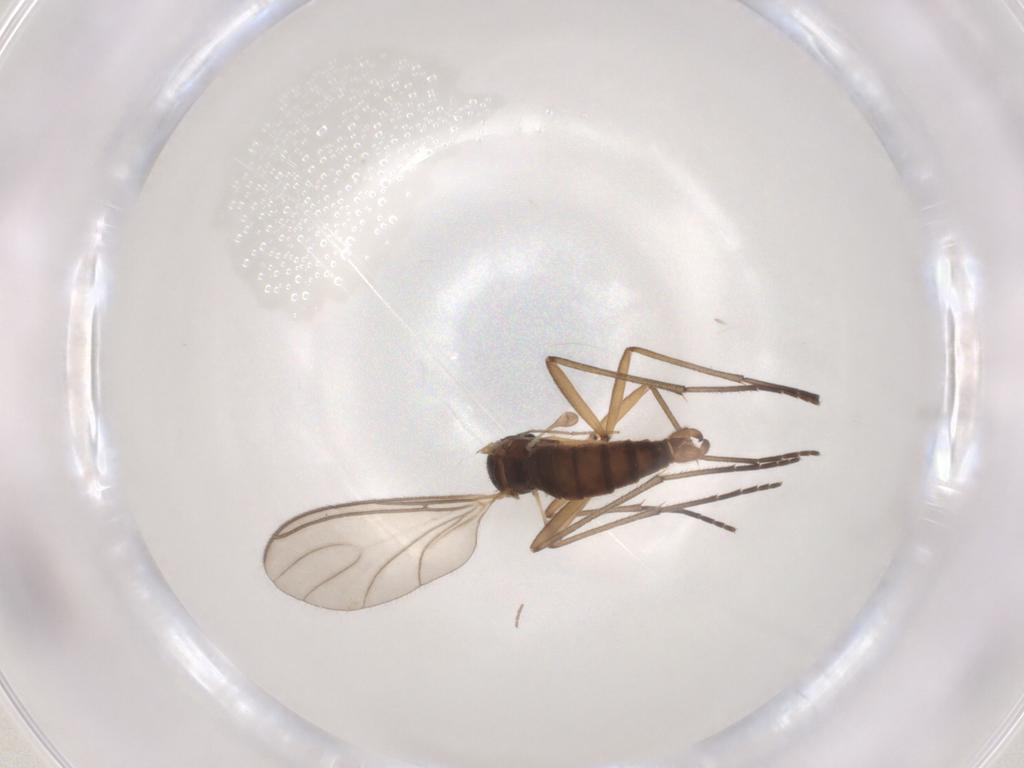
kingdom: Animalia
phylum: Arthropoda
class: Insecta
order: Diptera
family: Sciaridae
